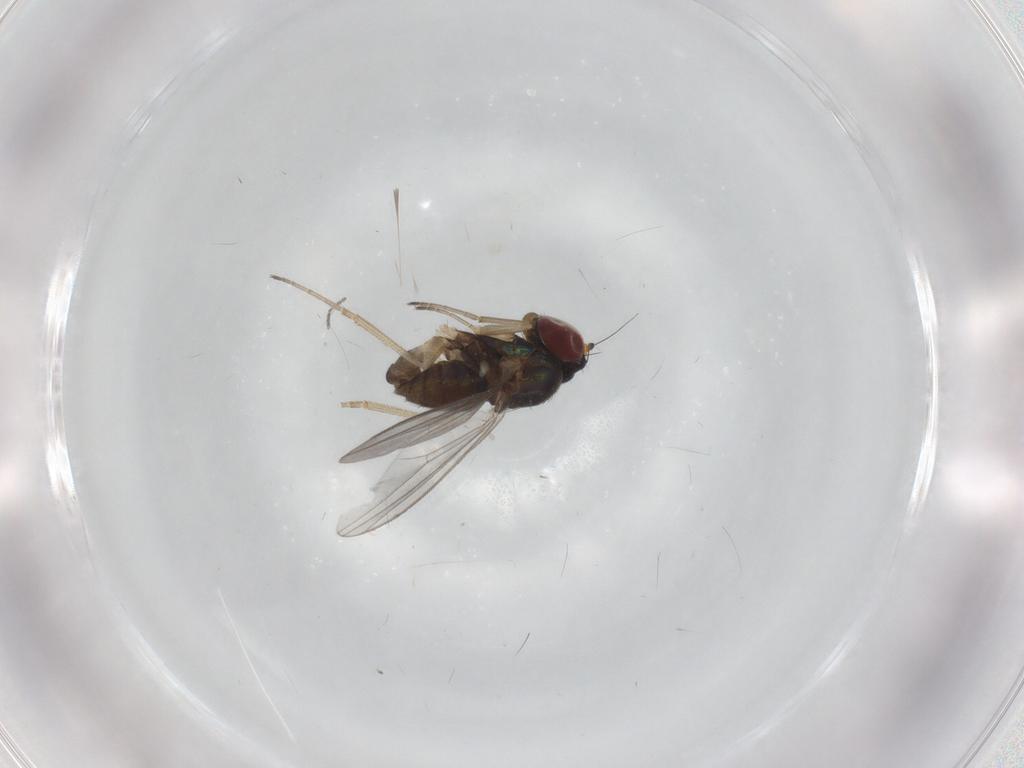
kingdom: Animalia
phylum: Arthropoda
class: Insecta
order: Diptera
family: Dolichopodidae
